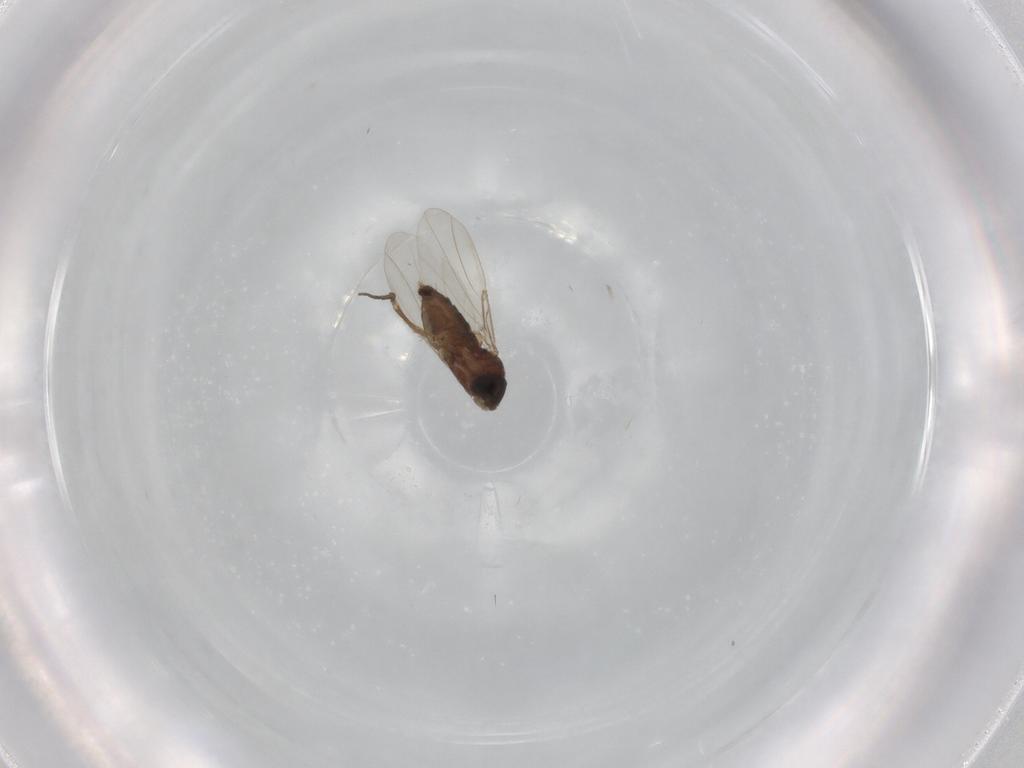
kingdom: Animalia
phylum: Arthropoda
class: Insecta
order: Diptera
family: Phoridae
